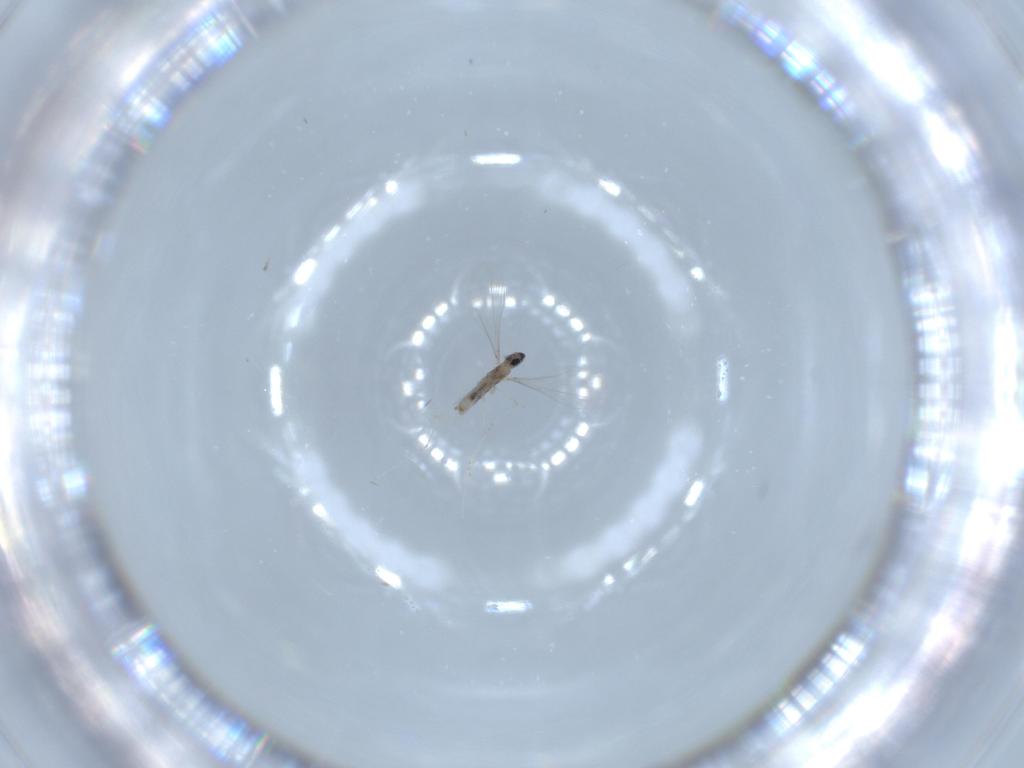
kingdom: Animalia
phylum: Arthropoda
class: Insecta
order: Diptera
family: Cecidomyiidae
